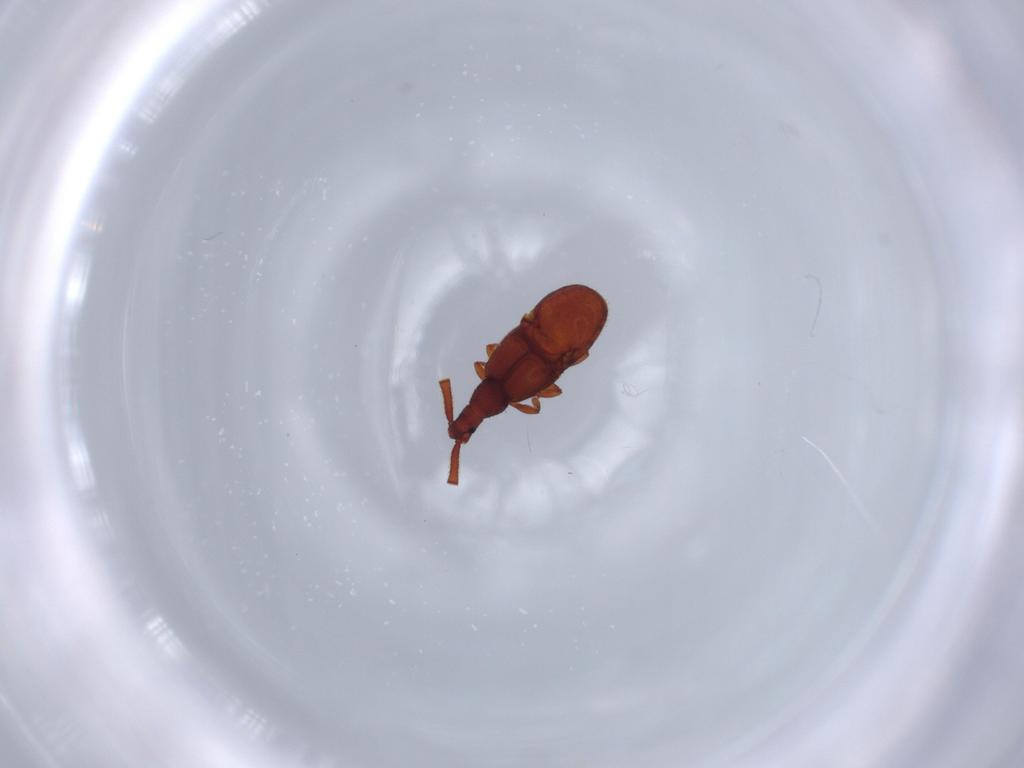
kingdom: Animalia
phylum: Arthropoda
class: Insecta
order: Coleoptera
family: Staphylinidae
